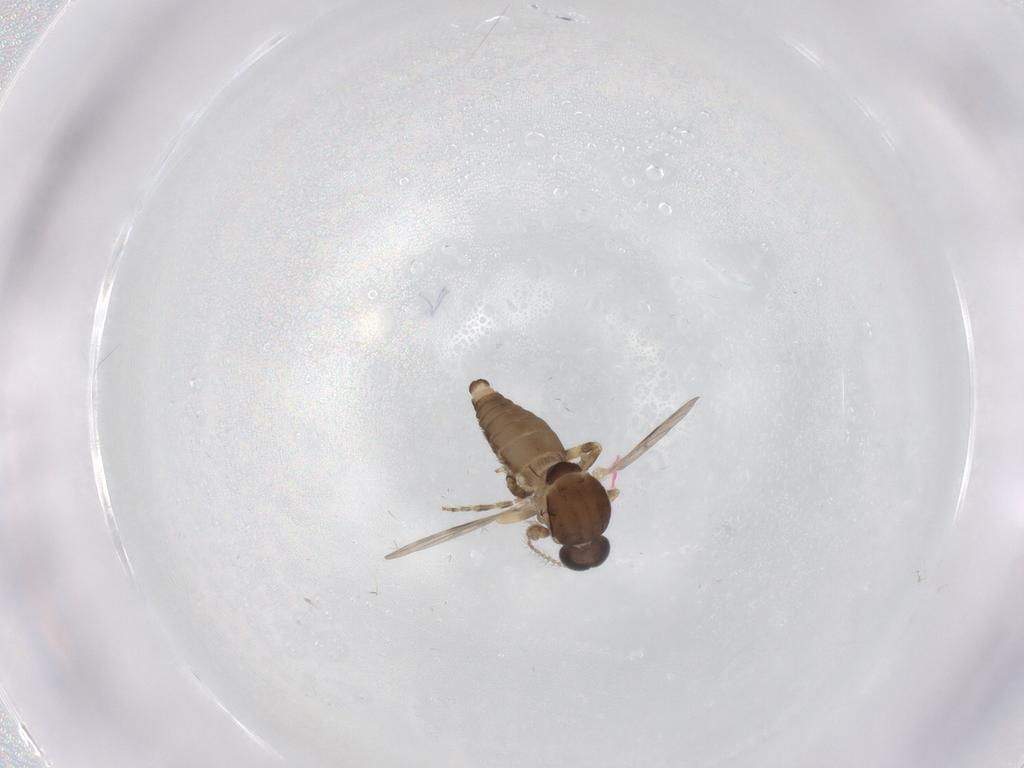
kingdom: Animalia
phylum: Arthropoda
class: Insecta
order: Diptera
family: Ceratopogonidae
